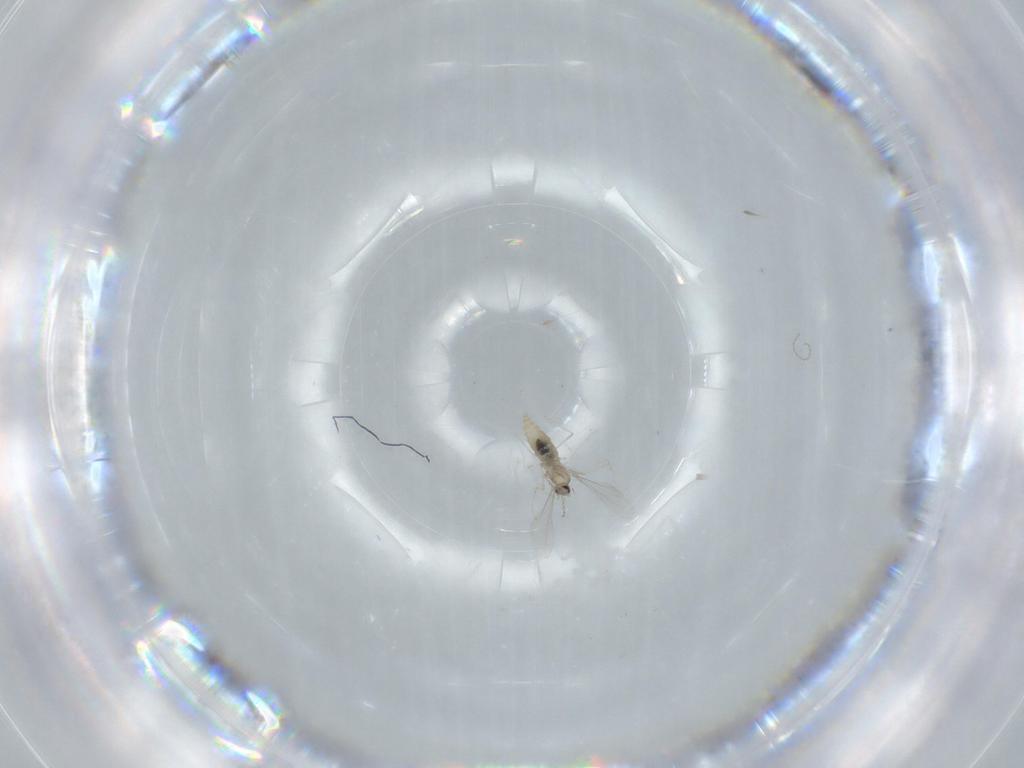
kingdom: Animalia
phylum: Arthropoda
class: Insecta
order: Diptera
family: Cecidomyiidae
